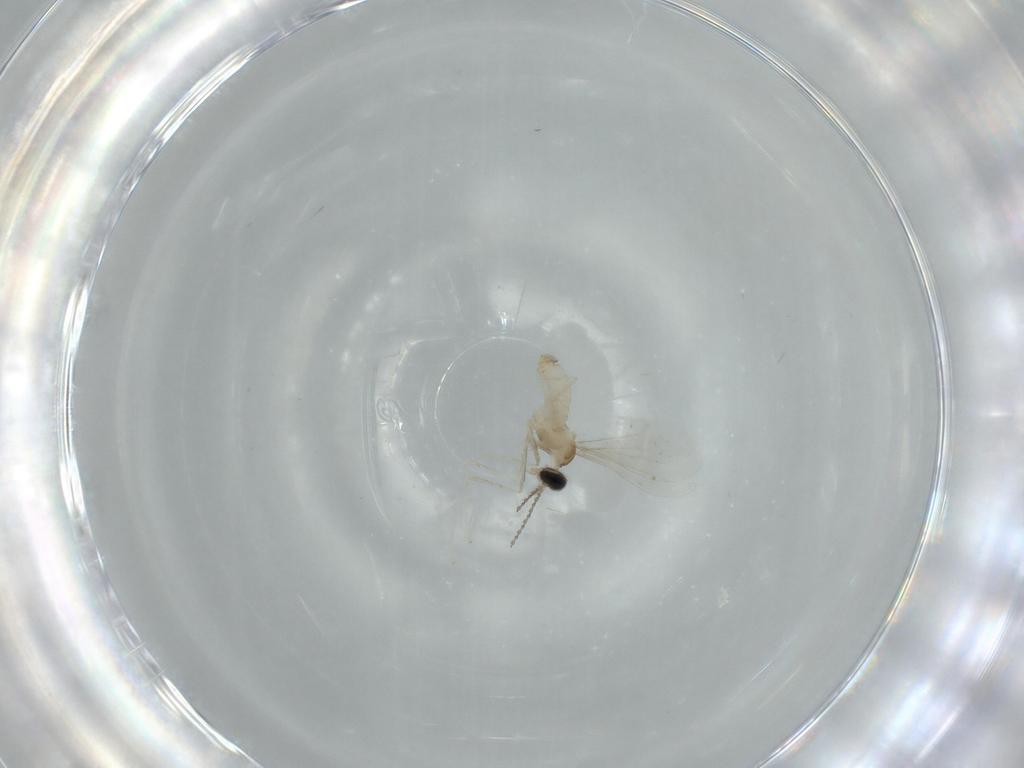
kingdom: Animalia
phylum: Arthropoda
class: Insecta
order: Diptera
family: Cecidomyiidae
